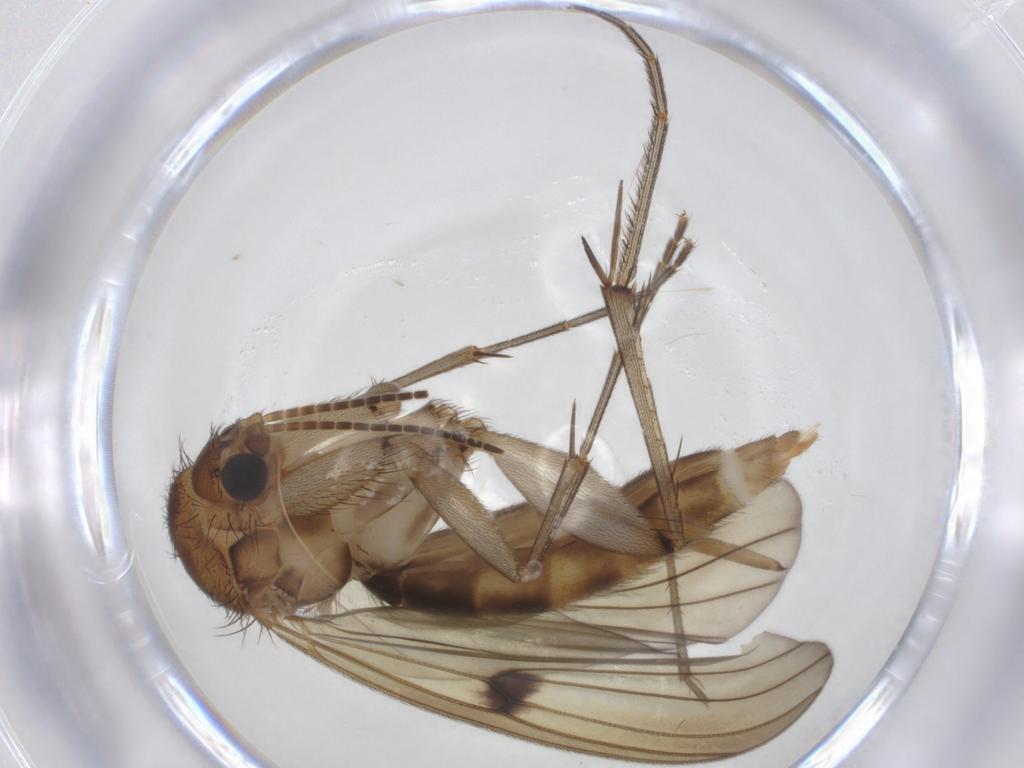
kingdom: Animalia
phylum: Arthropoda
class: Insecta
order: Diptera
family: Mycetophilidae
